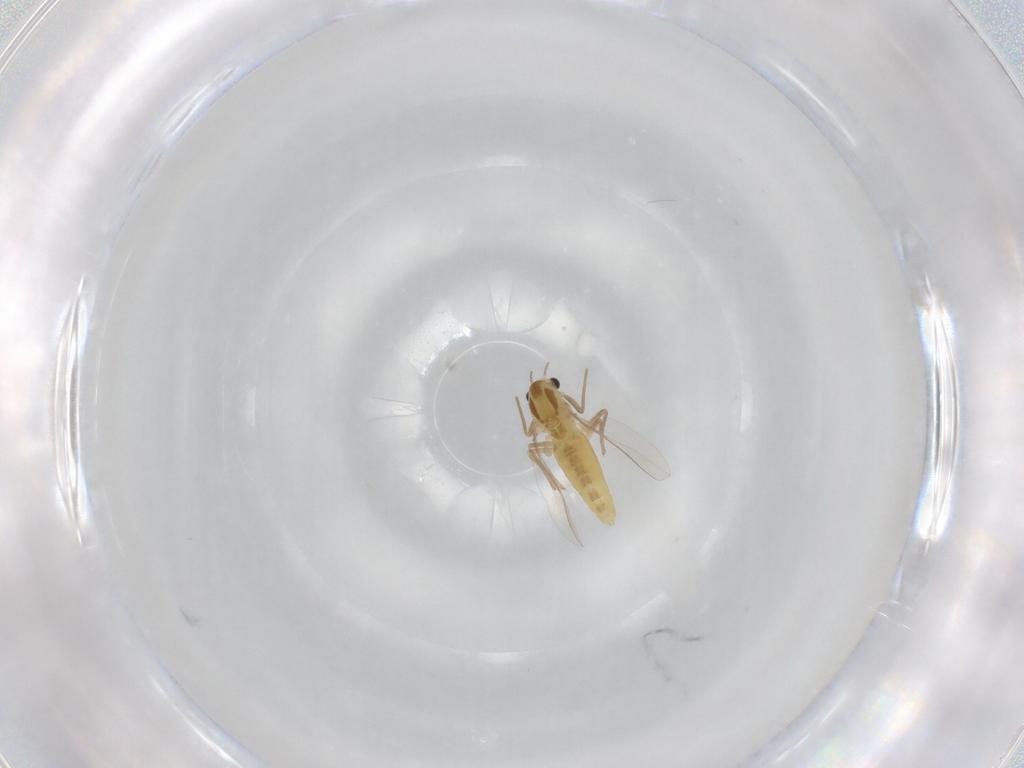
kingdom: Animalia
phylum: Arthropoda
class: Insecta
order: Diptera
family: Chironomidae
